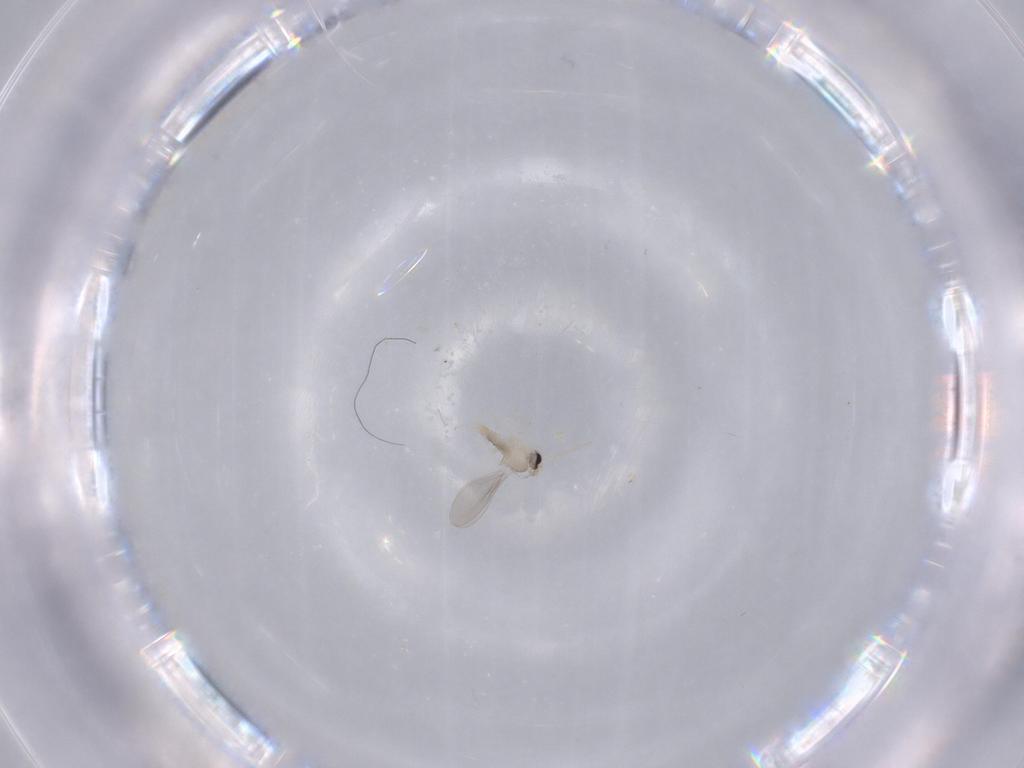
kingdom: Animalia
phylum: Arthropoda
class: Insecta
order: Diptera
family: Cecidomyiidae
